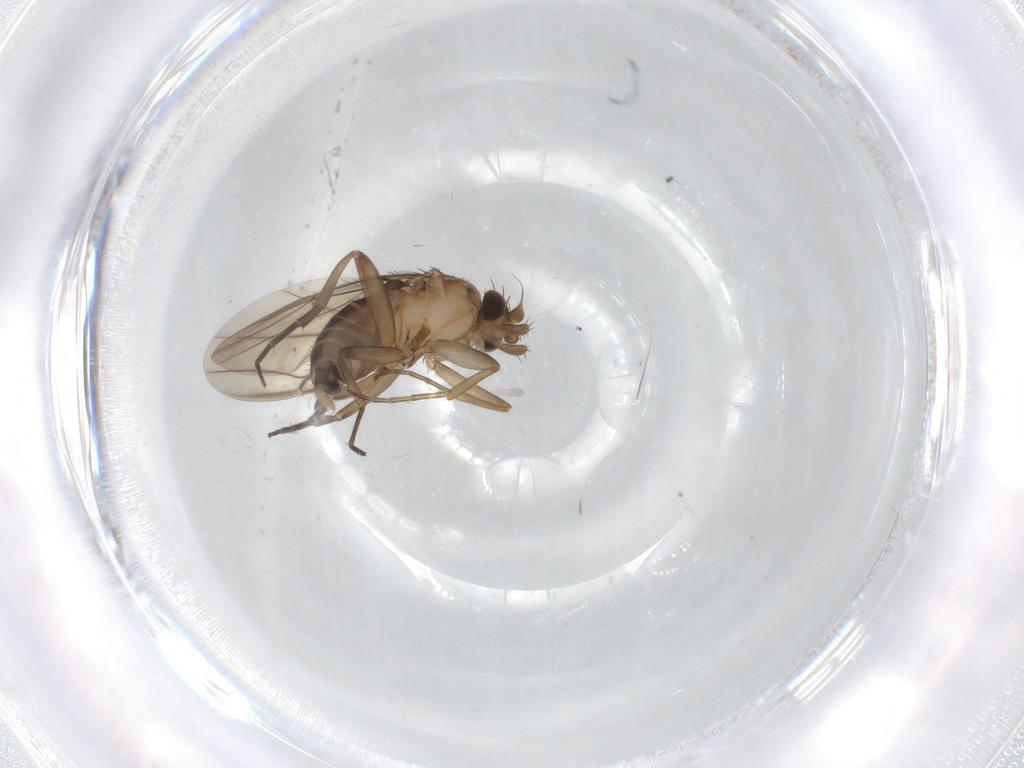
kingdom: Animalia
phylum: Arthropoda
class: Insecta
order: Diptera
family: Phoridae
